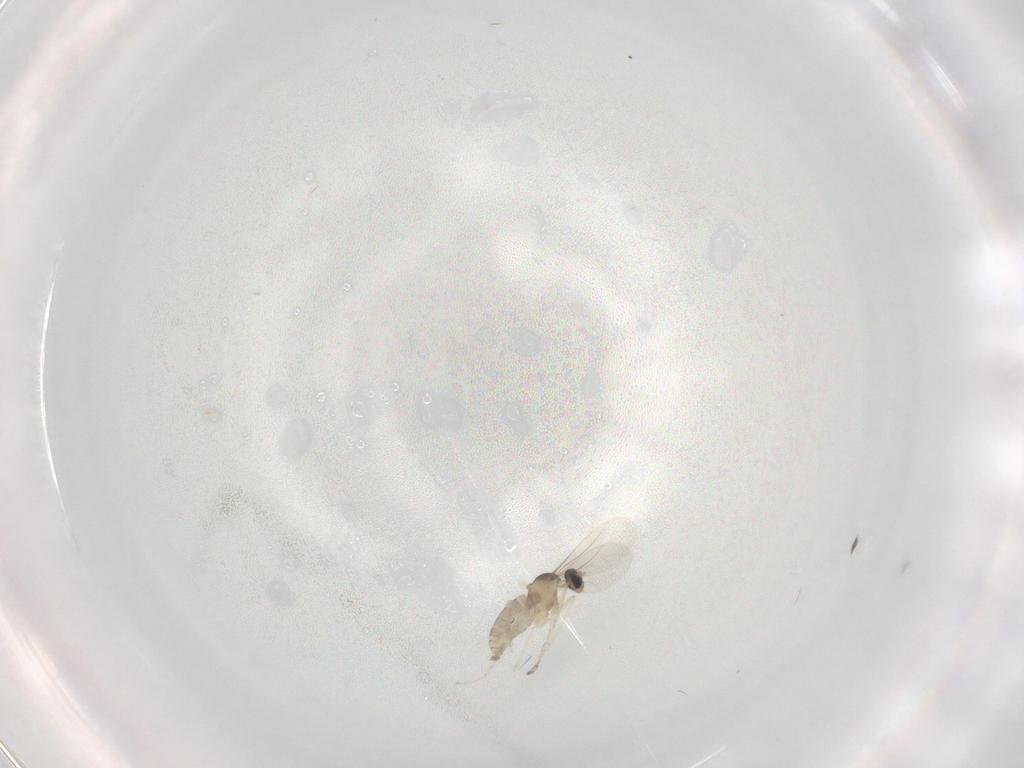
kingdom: Animalia
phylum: Arthropoda
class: Insecta
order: Diptera
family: Cecidomyiidae
